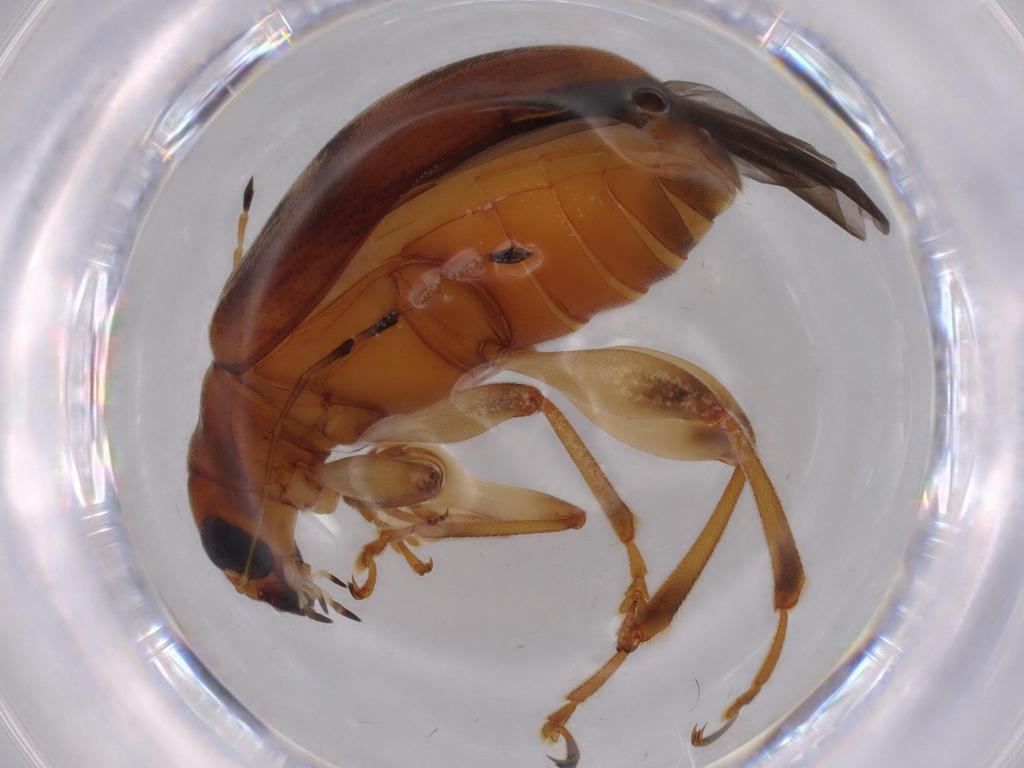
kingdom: Animalia
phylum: Arthropoda
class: Insecta
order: Coleoptera
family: Chrysomelidae
